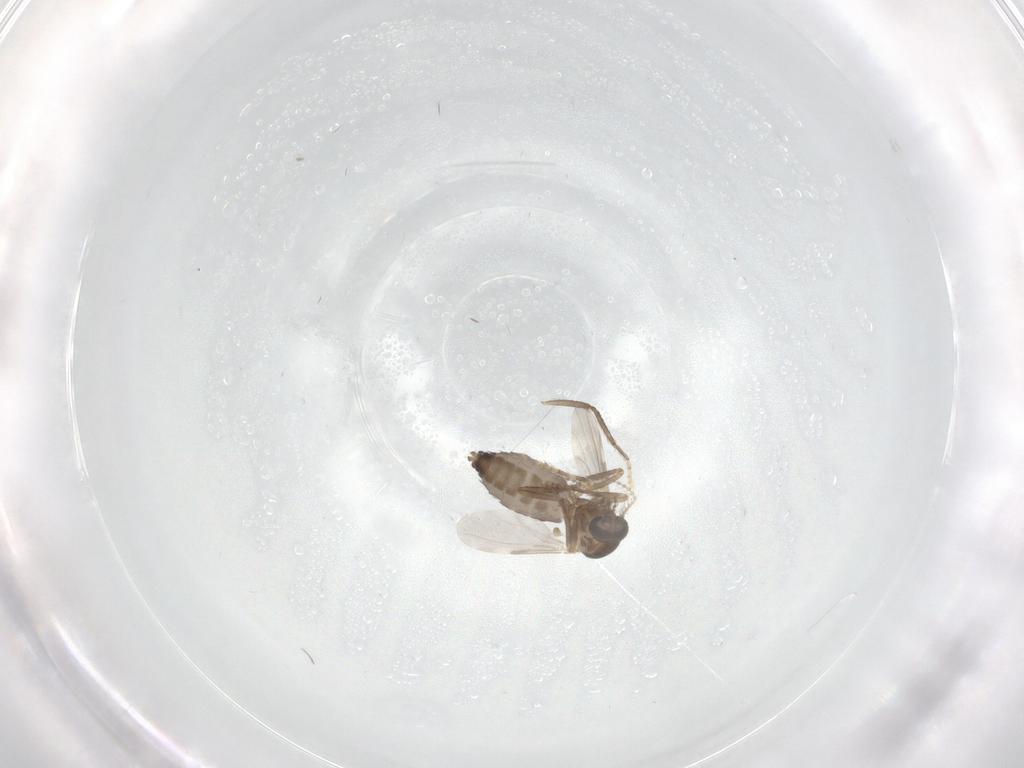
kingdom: Animalia
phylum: Arthropoda
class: Insecta
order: Diptera
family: Ceratopogonidae
